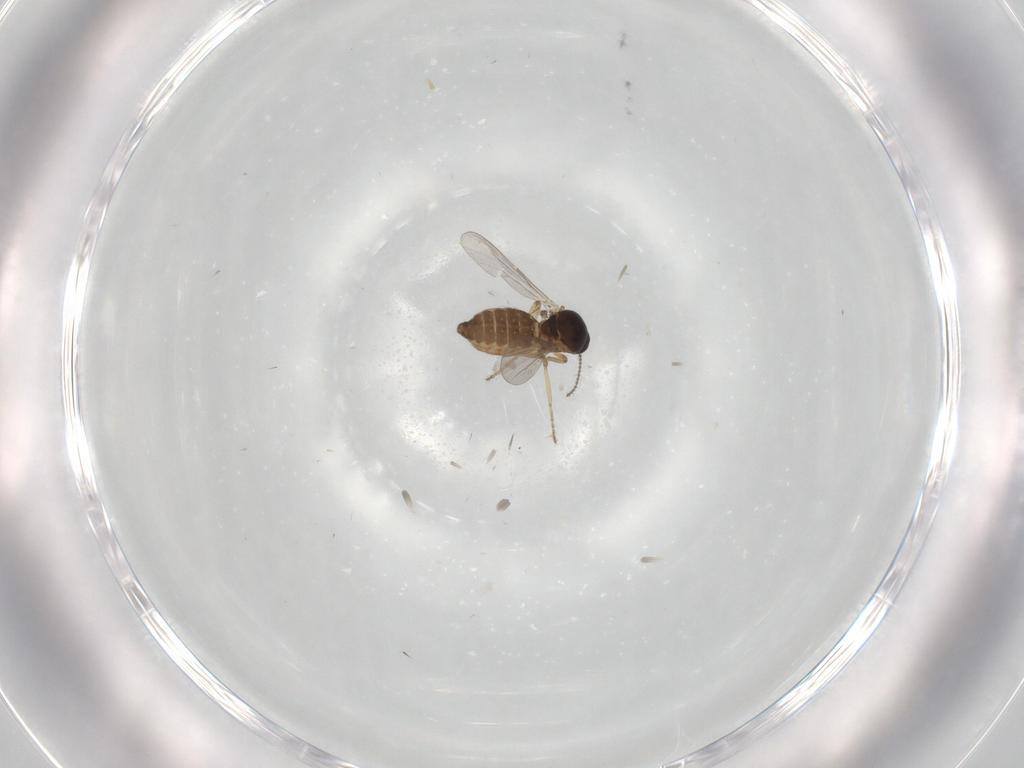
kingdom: Animalia
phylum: Arthropoda
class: Insecta
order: Diptera
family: Ceratopogonidae
